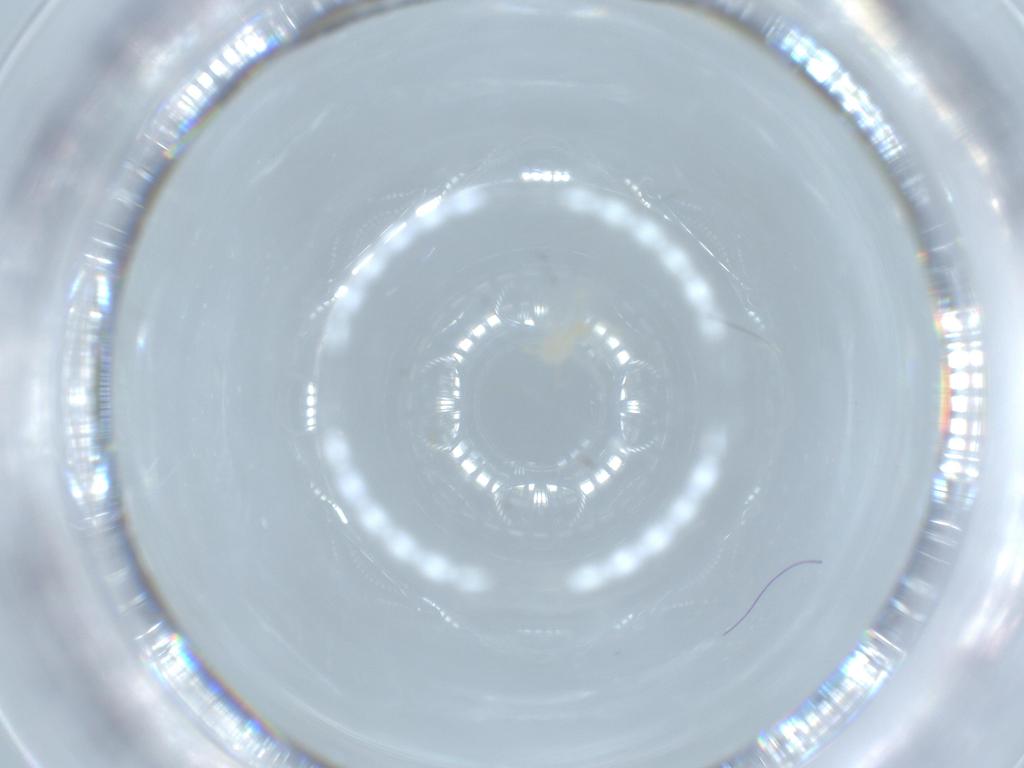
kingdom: Animalia
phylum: Arthropoda
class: Arachnida
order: Trombidiformes
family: Erythraeidae
